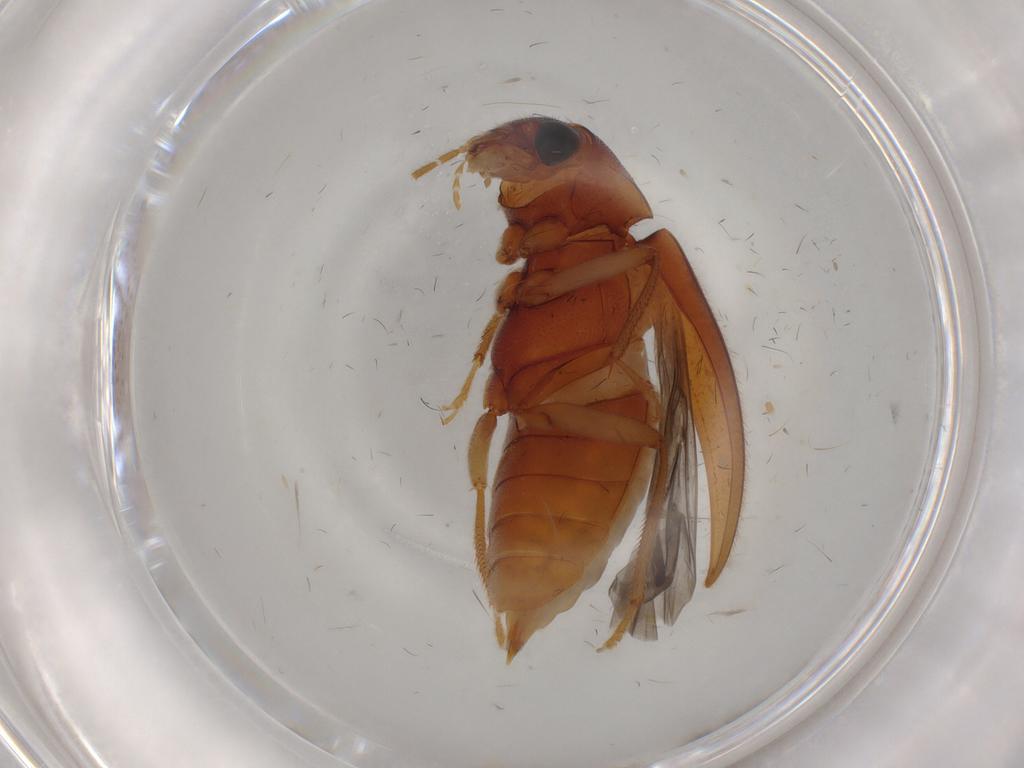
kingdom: Animalia
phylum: Arthropoda
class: Insecta
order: Coleoptera
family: Ptilodactylidae
